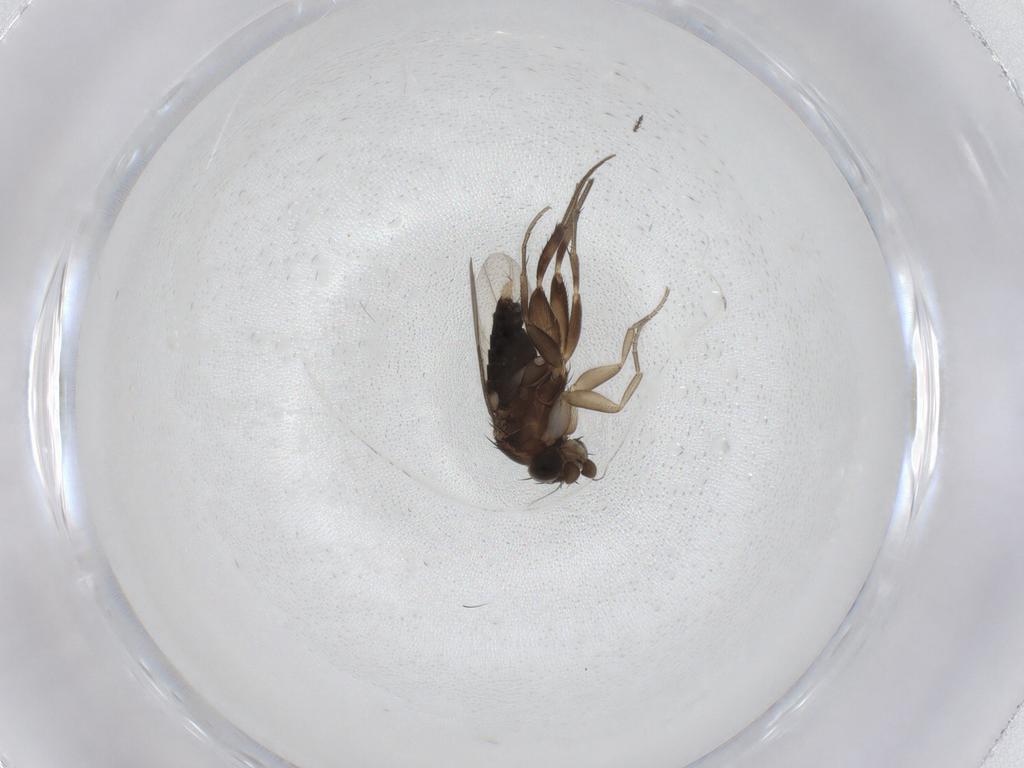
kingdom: Animalia
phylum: Arthropoda
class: Insecta
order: Diptera
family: Phoridae
